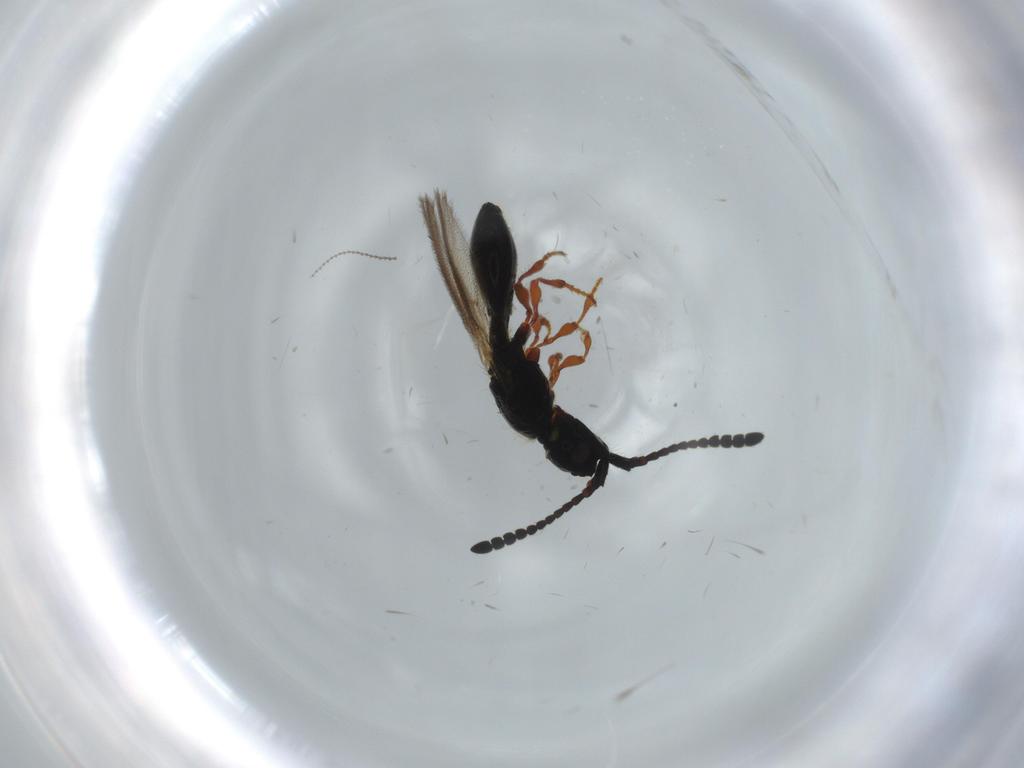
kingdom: Animalia
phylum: Arthropoda
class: Insecta
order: Hymenoptera
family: Diapriidae
